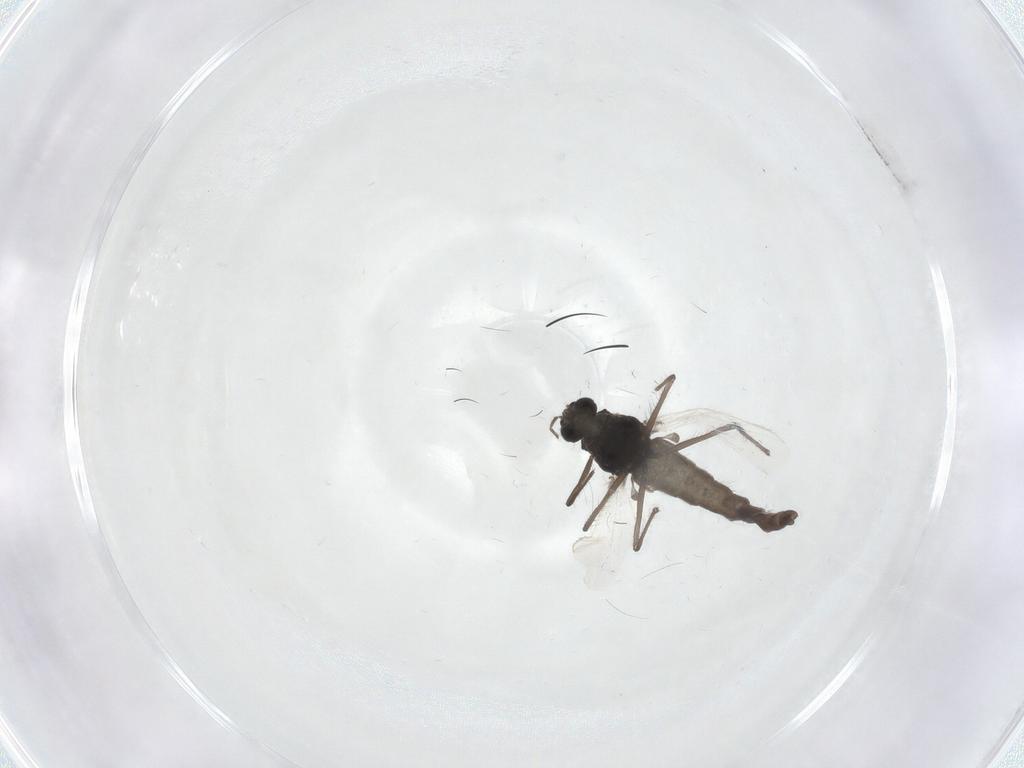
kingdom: Animalia
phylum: Arthropoda
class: Insecta
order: Diptera
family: Sciaridae
